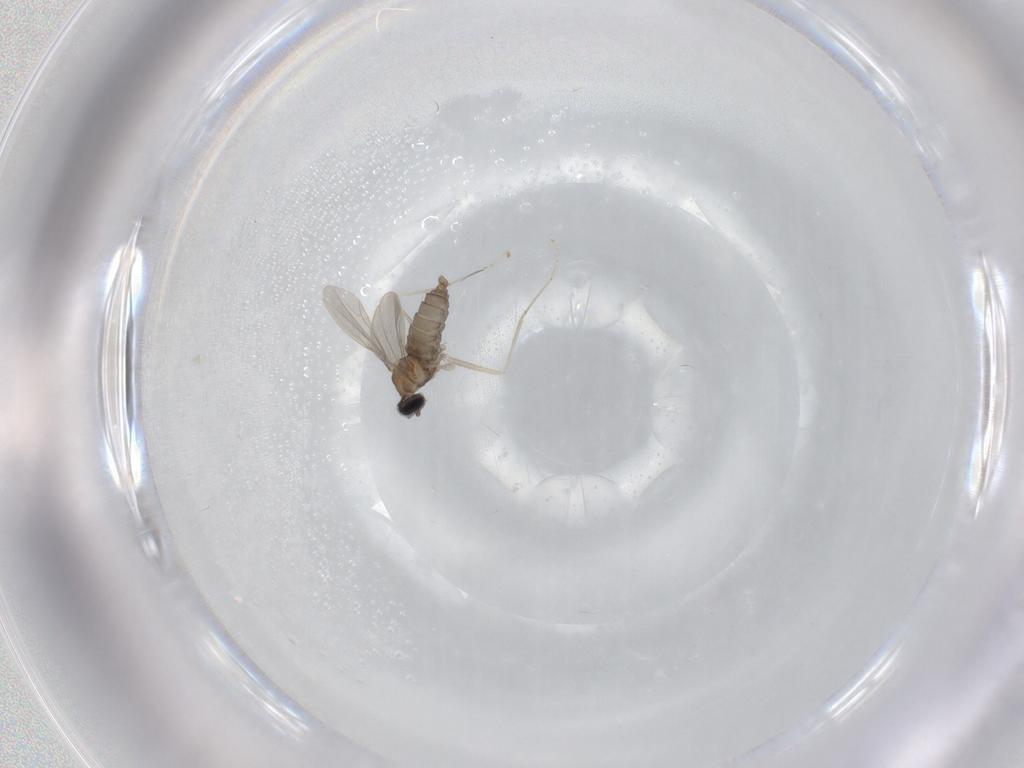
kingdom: Animalia
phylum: Arthropoda
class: Insecta
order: Diptera
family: Cecidomyiidae
